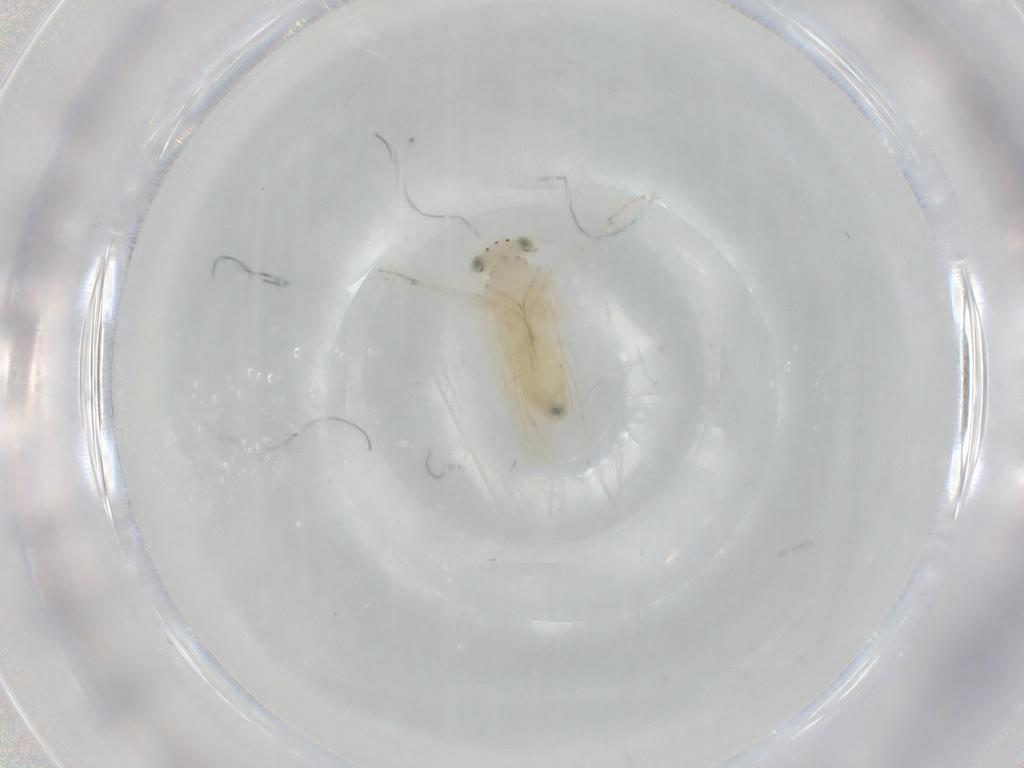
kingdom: Animalia
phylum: Arthropoda
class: Insecta
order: Psocodea
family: Lepidopsocidae
